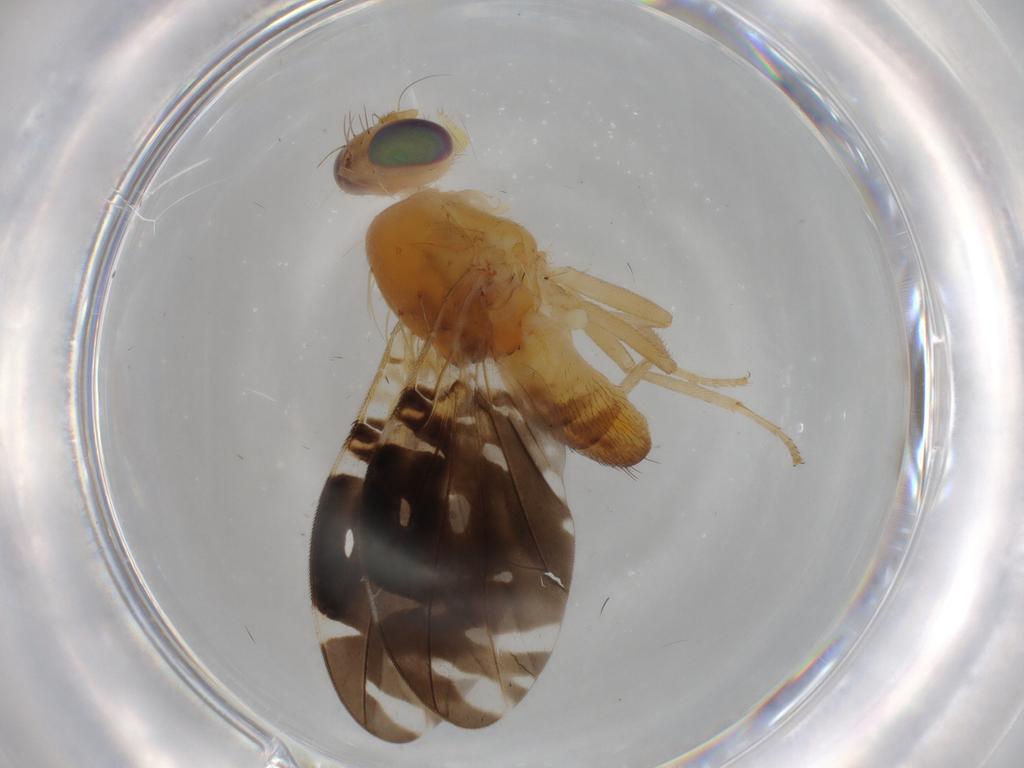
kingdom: Animalia
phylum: Arthropoda
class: Insecta
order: Diptera
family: Tephritidae
